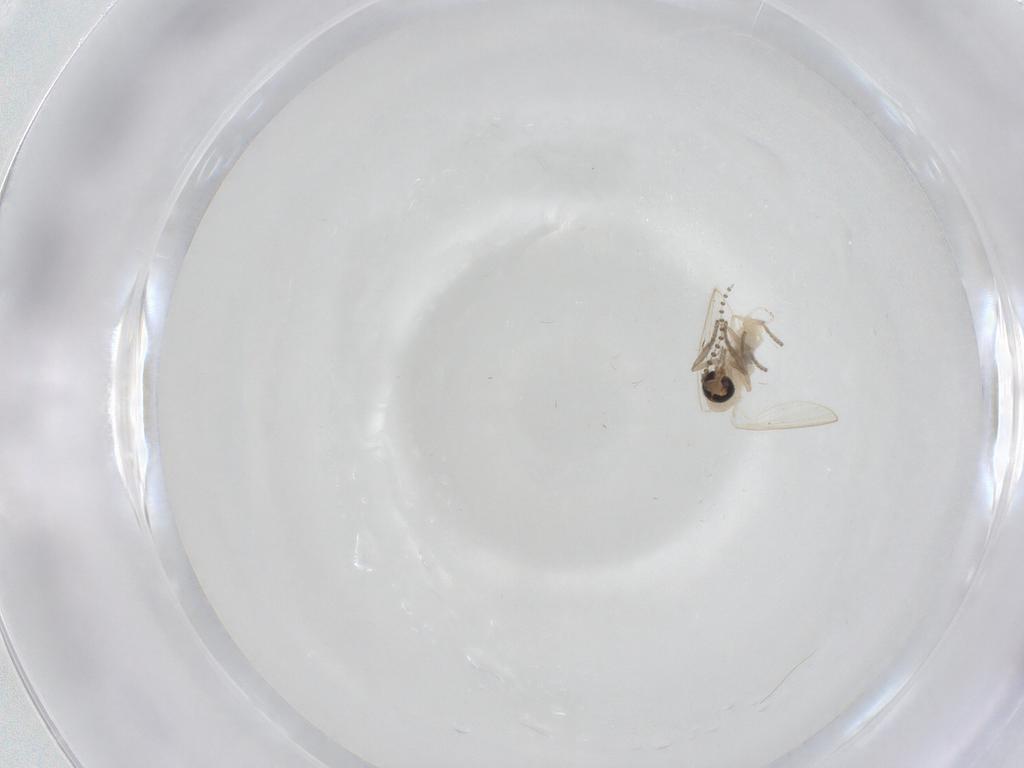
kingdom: Animalia
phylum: Arthropoda
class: Insecta
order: Diptera
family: Psychodidae
